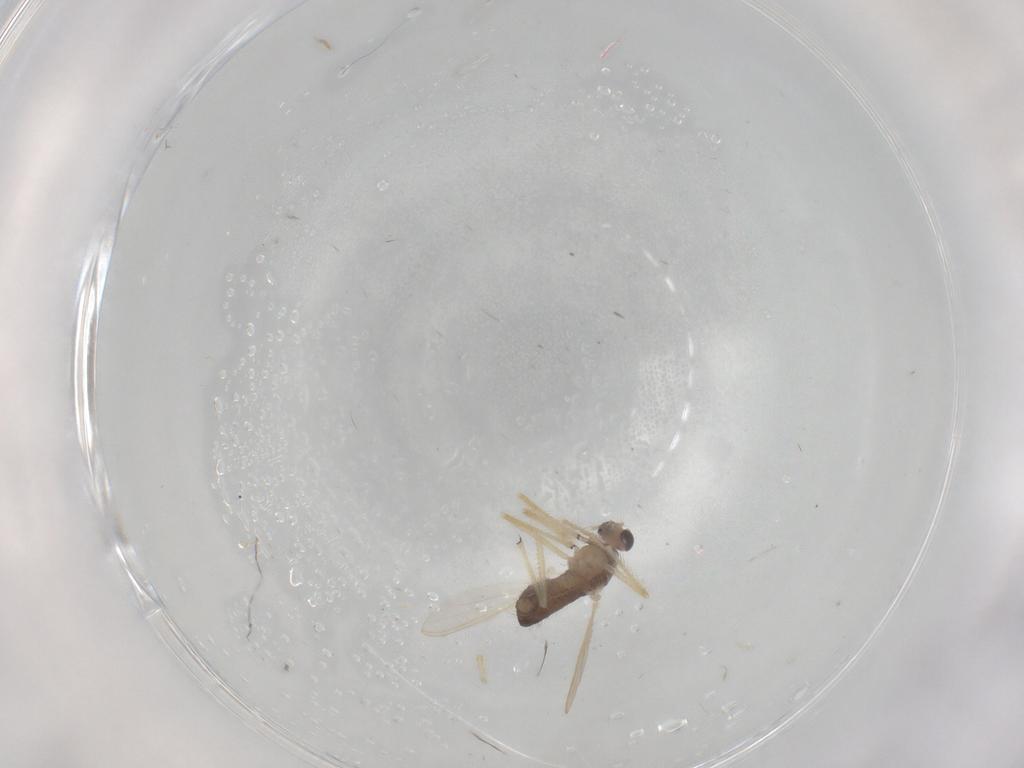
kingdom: Animalia
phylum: Arthropoda
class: Insecta
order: Diptera
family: Chironomidae
